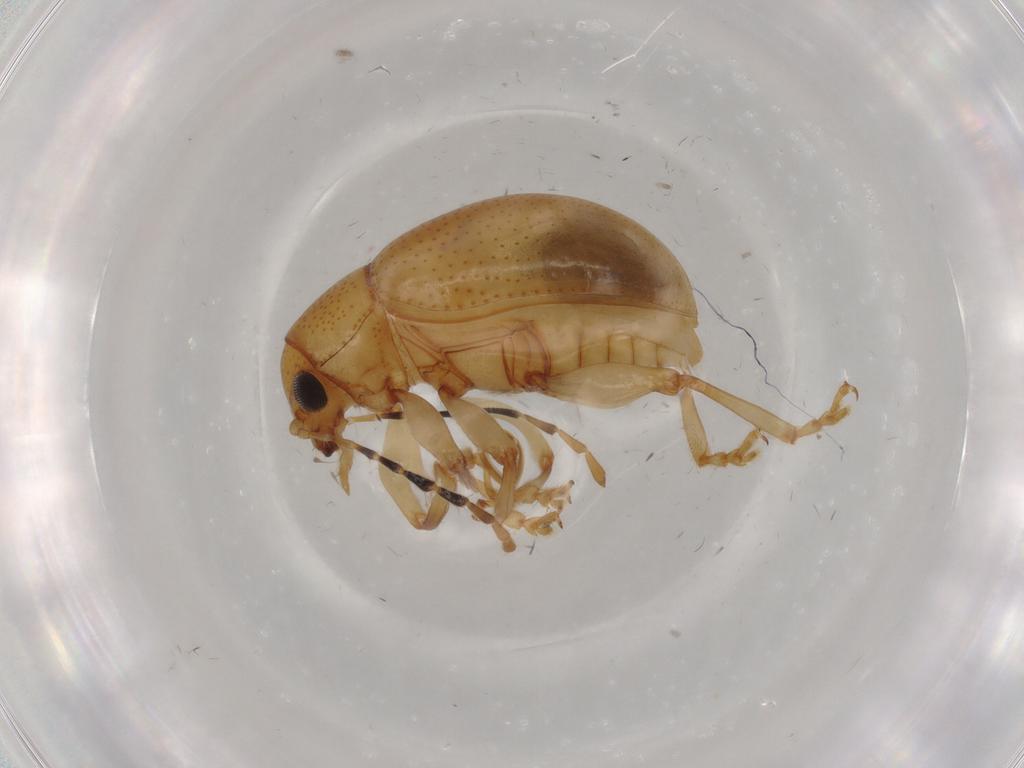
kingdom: Animalia
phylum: Arthropoda
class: Insecta
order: Coleoptera
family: Chrysomelidae
